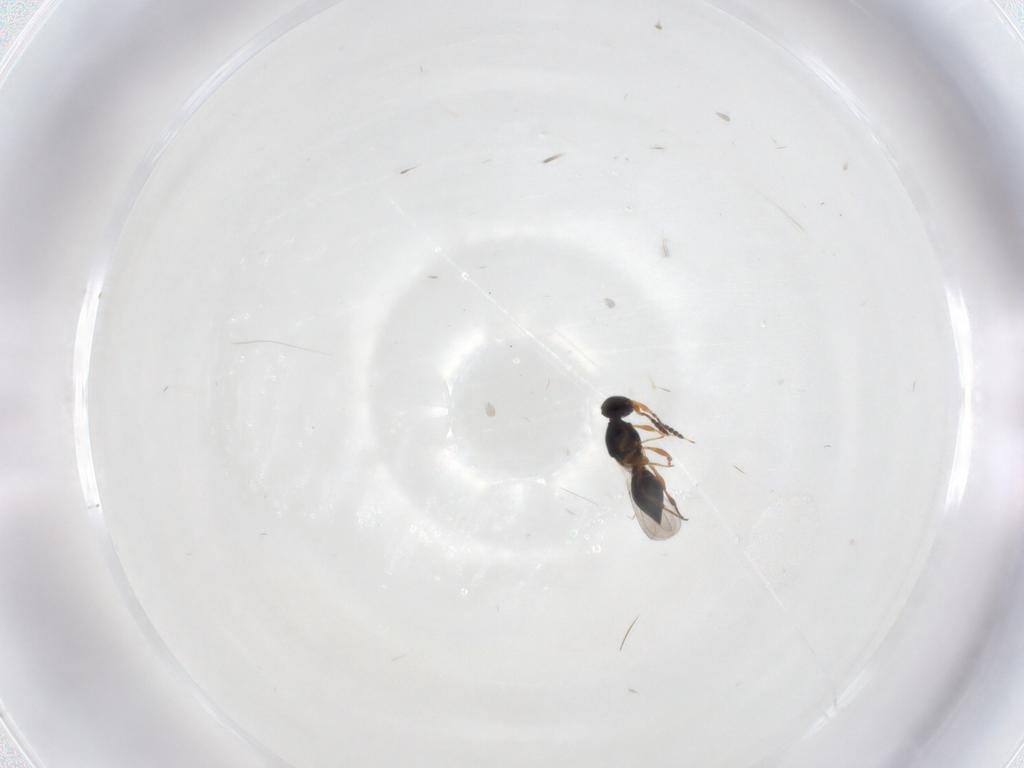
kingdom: Animalia
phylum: Arthropoda
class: Insecta
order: Hymenoptera
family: Platygastridae
